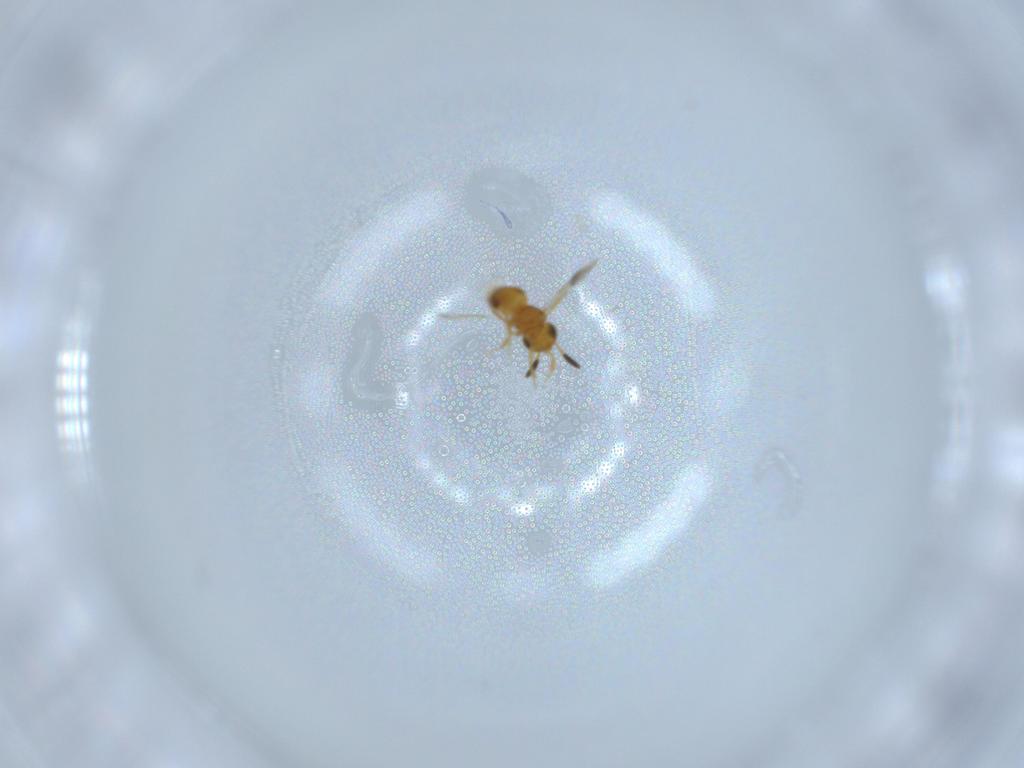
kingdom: Animalia
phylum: Arthropoda
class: Insecta
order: Hymenoptera
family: Scelionidae
